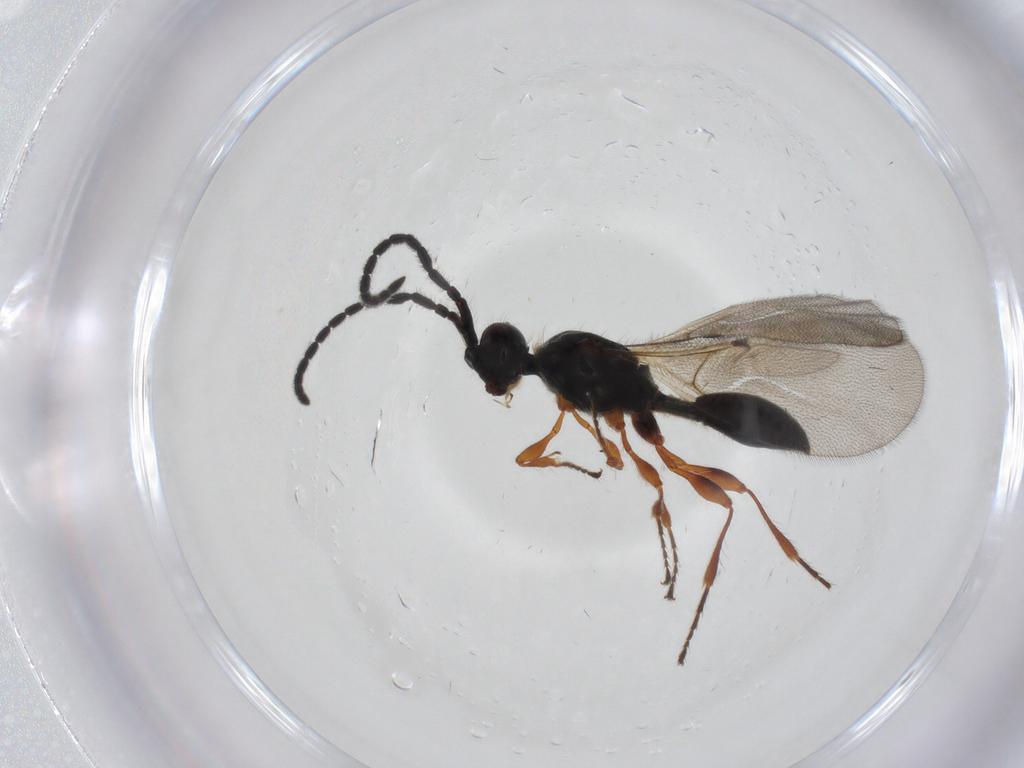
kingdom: Animalia
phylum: Arthropoda
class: Insecta
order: Hymenoptera
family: Diapriidae
